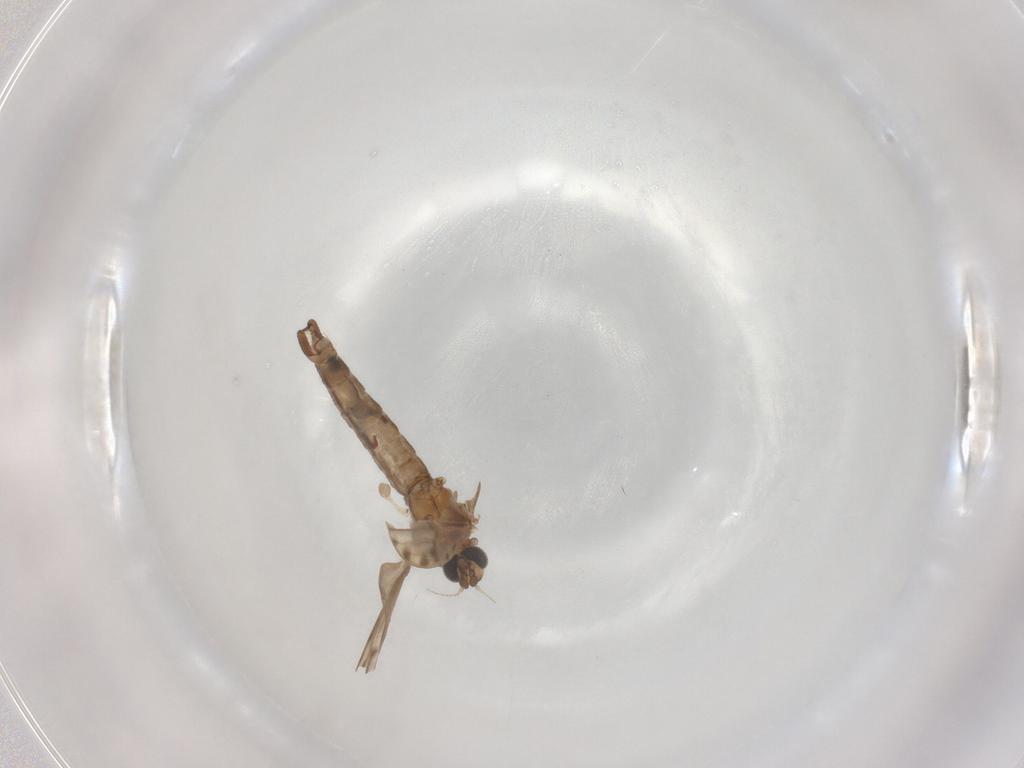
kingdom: Animalia
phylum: Arthropoda
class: Insecta
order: Diptera
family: Limoniidae
